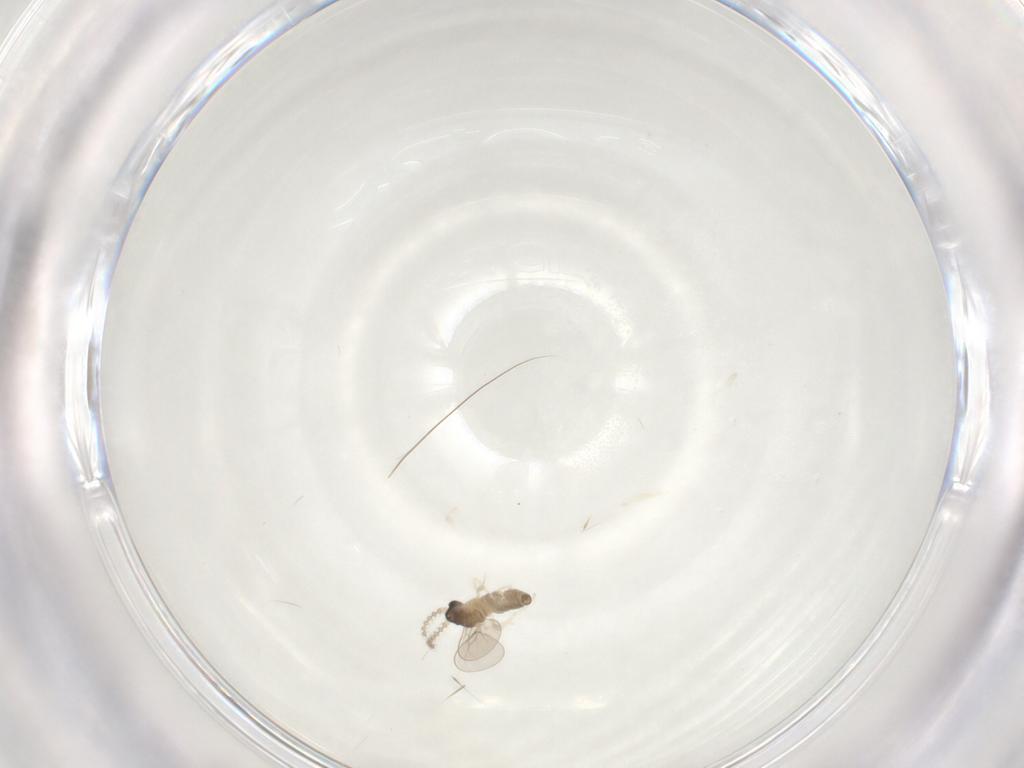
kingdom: Animalia
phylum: Arthropoda
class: Insecta
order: Diptera
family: Cecidomyiidae
